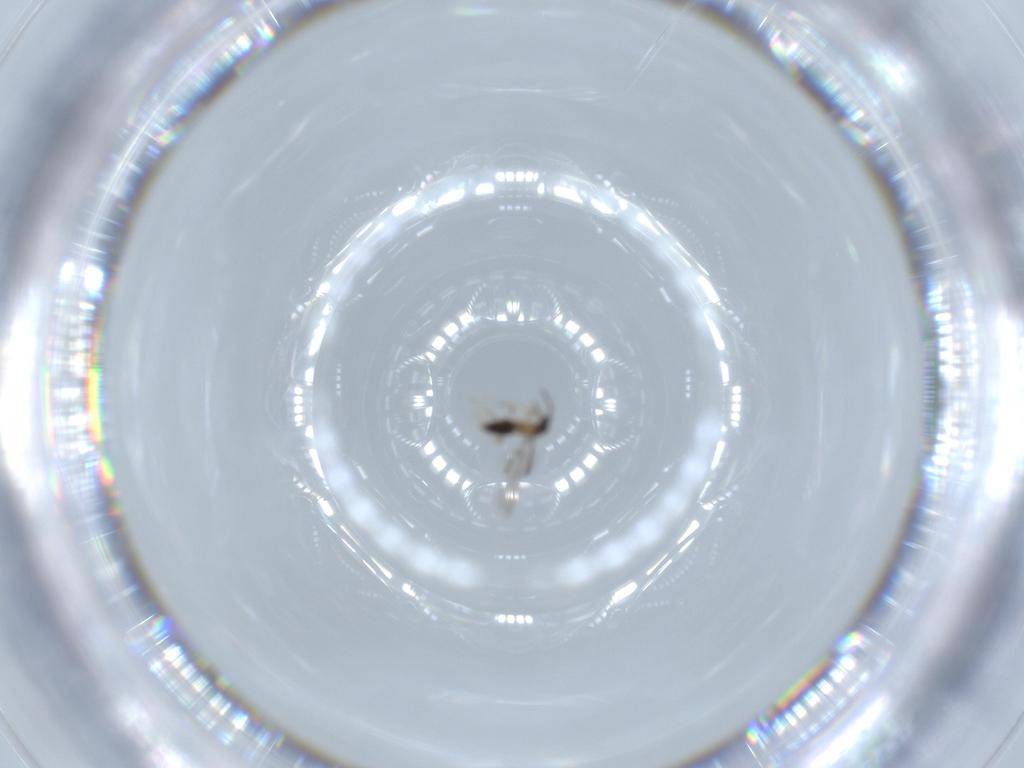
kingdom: Animalia
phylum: Arthropoda
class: Insecta
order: Hymenoptera
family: Mymaridae
